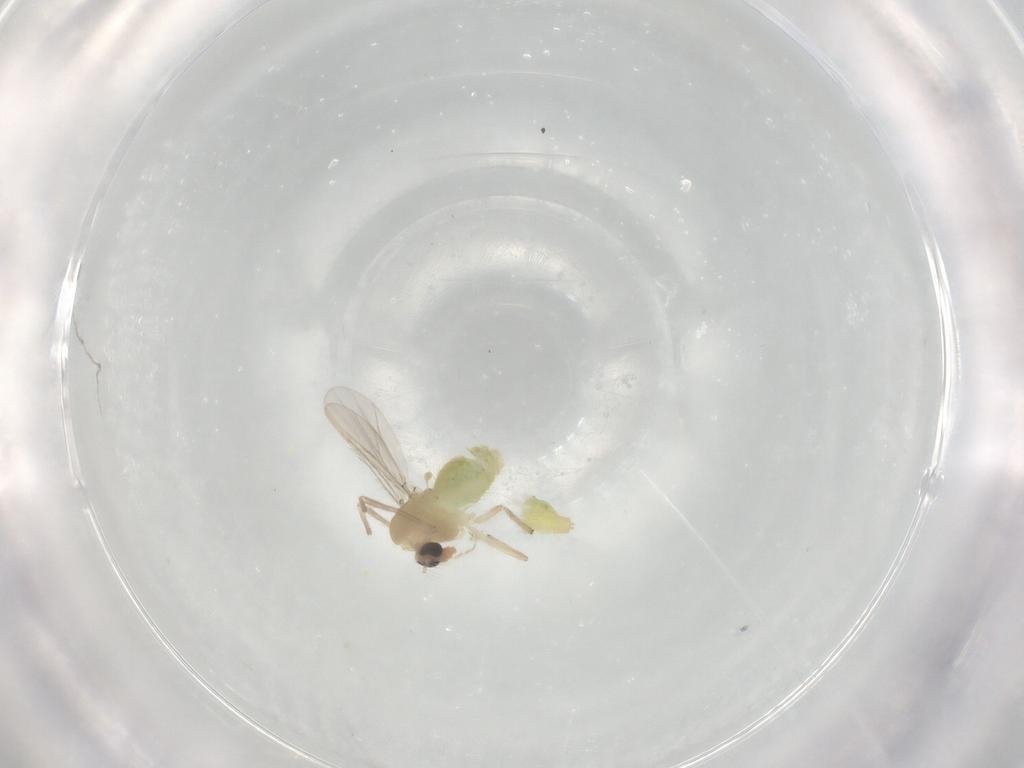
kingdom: Animalia
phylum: Arthropoda
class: Insecta
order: Diptera
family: Chironomidae
